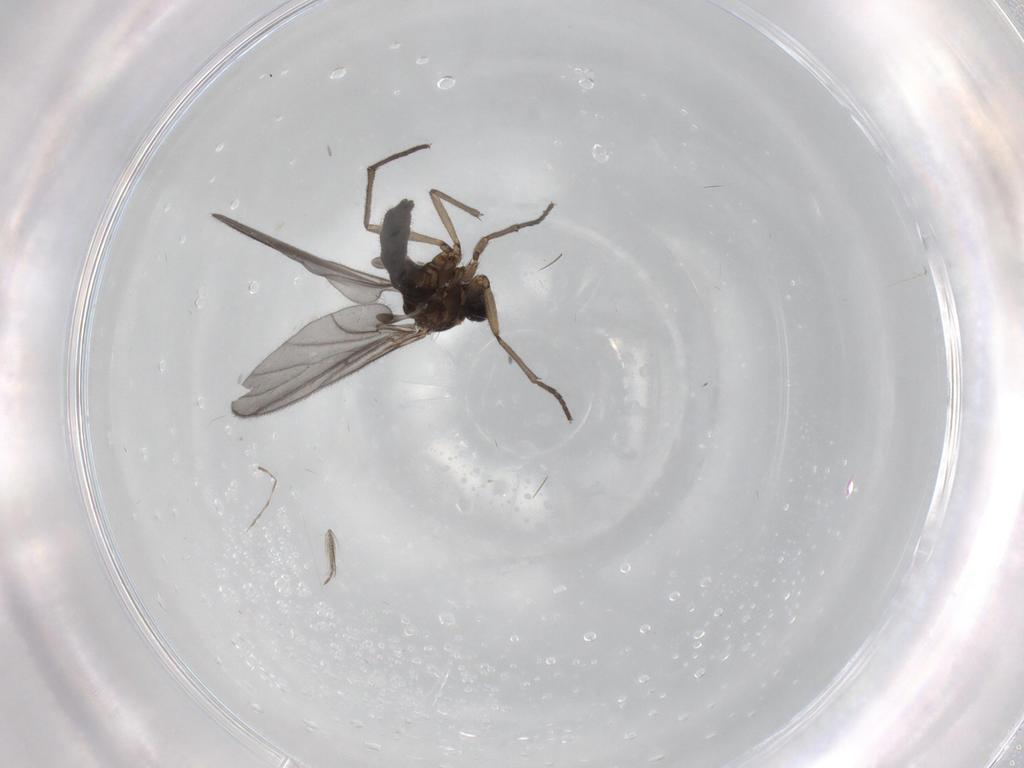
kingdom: Animalia
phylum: Arthropoda
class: Insecta
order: Diptera
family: Sciaridae
